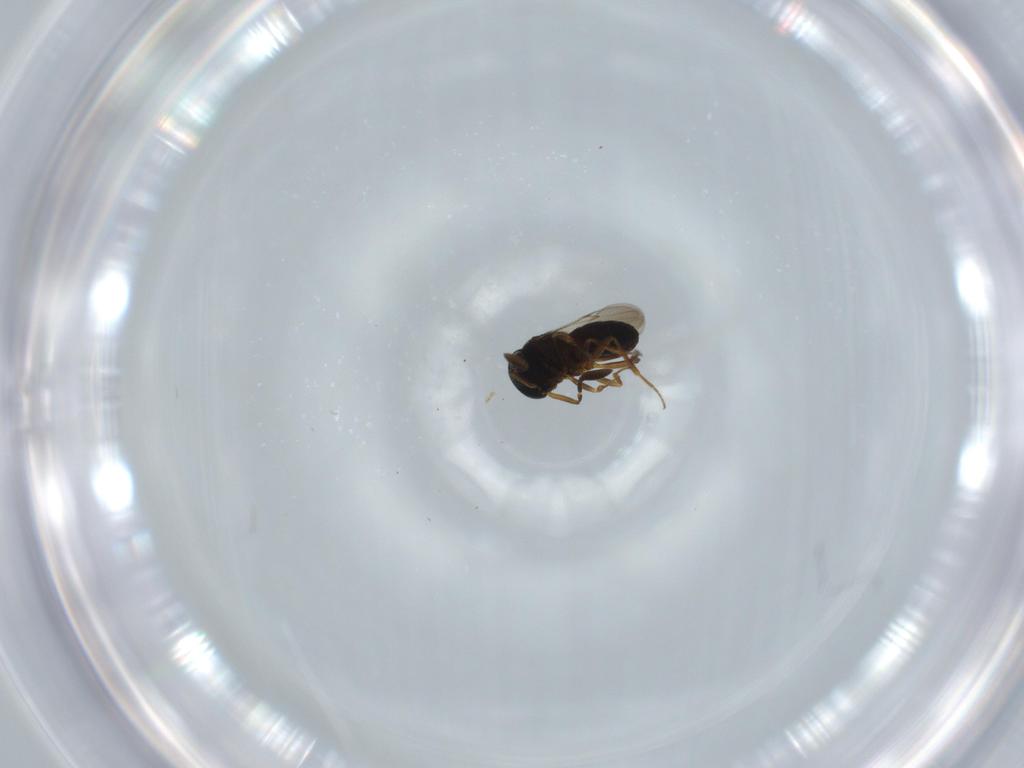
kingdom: Animalia
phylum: Arthropoda
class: Insecta
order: Hymenoptera
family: Scelionidae
